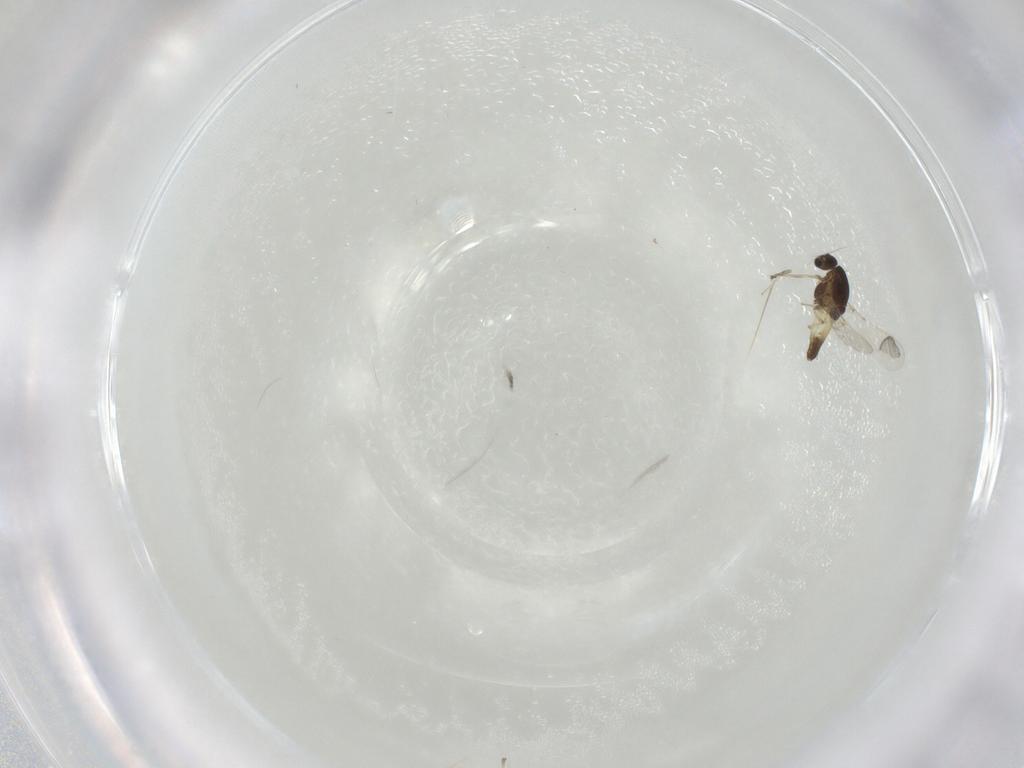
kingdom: Animalia
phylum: Arthropoda
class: Insecta
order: Diptera
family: Chironomidae
